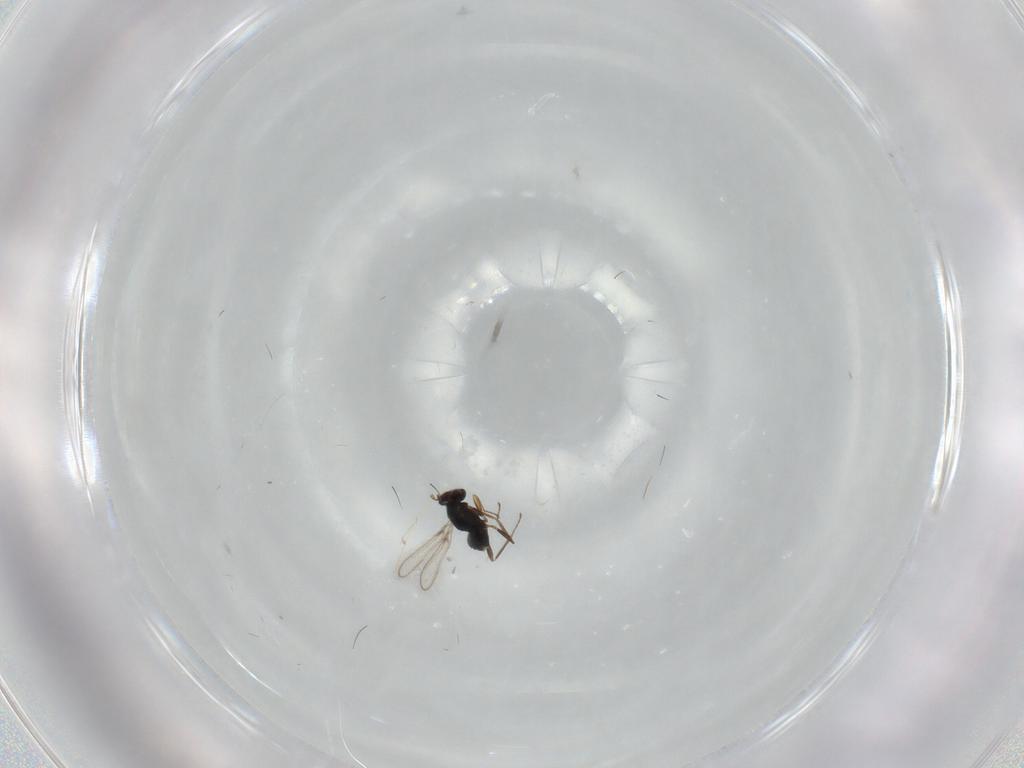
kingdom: Animalia
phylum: Arthropoda
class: Insecta
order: Hymenoptera
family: Mymaridae
